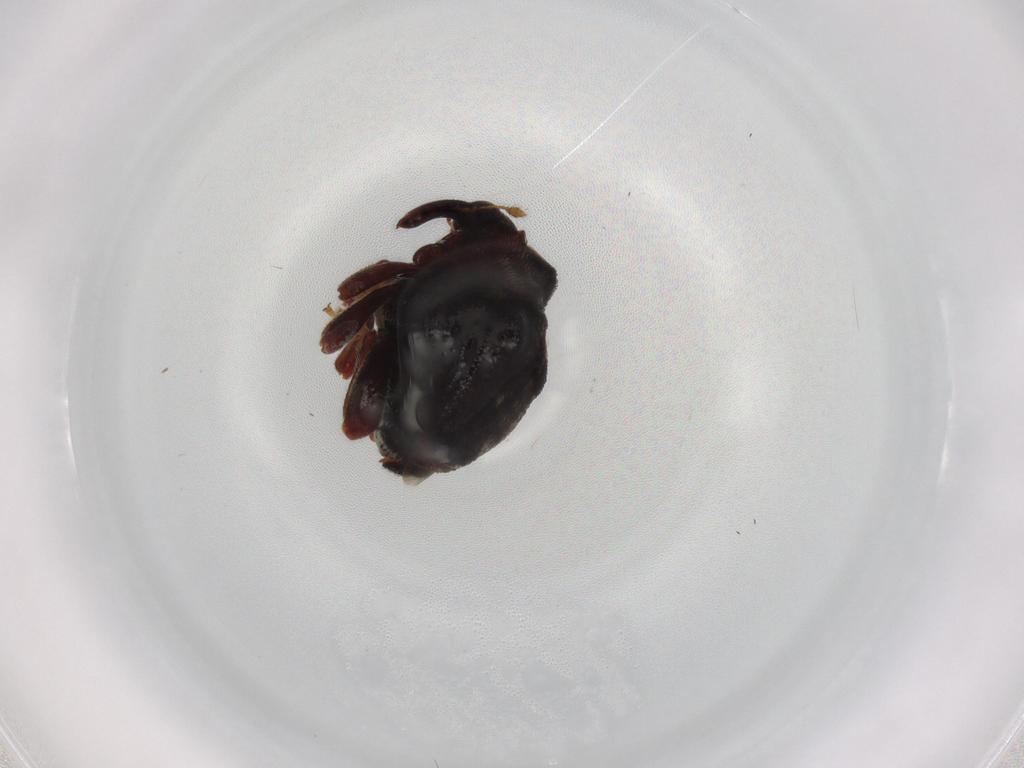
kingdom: Animalia
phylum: Arthropoda
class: Insecta
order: Coleoptera
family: Curculionidae
